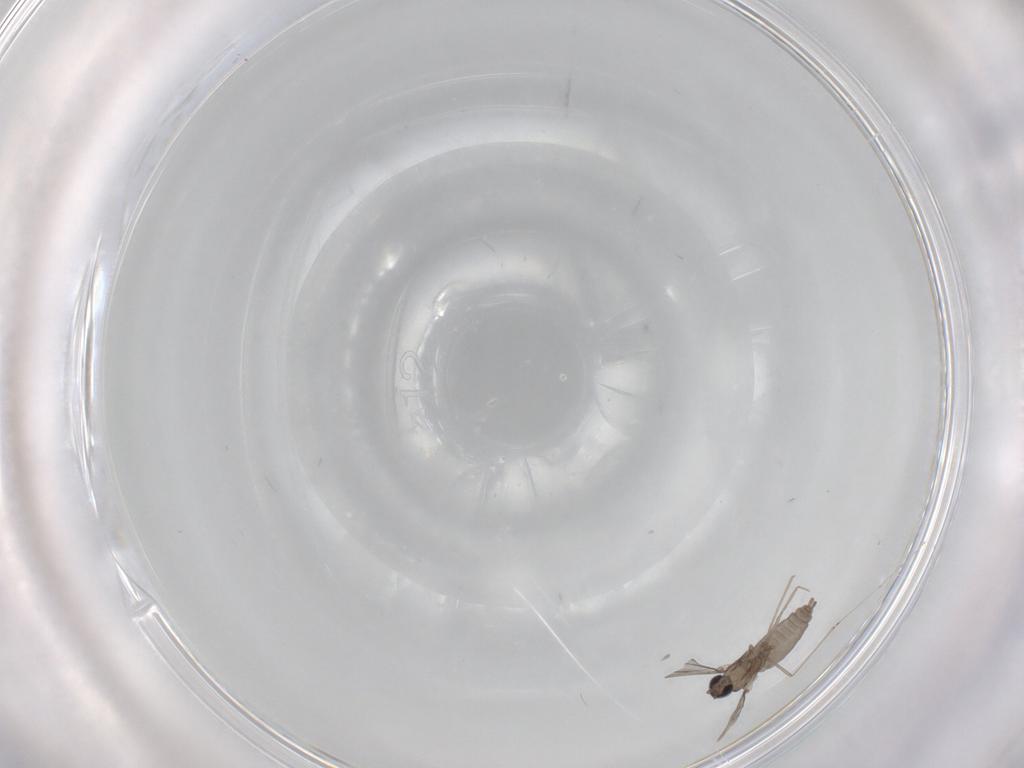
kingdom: Animalia
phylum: Arthropoda
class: Insecta
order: Diptera
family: Cecidomyiidae
